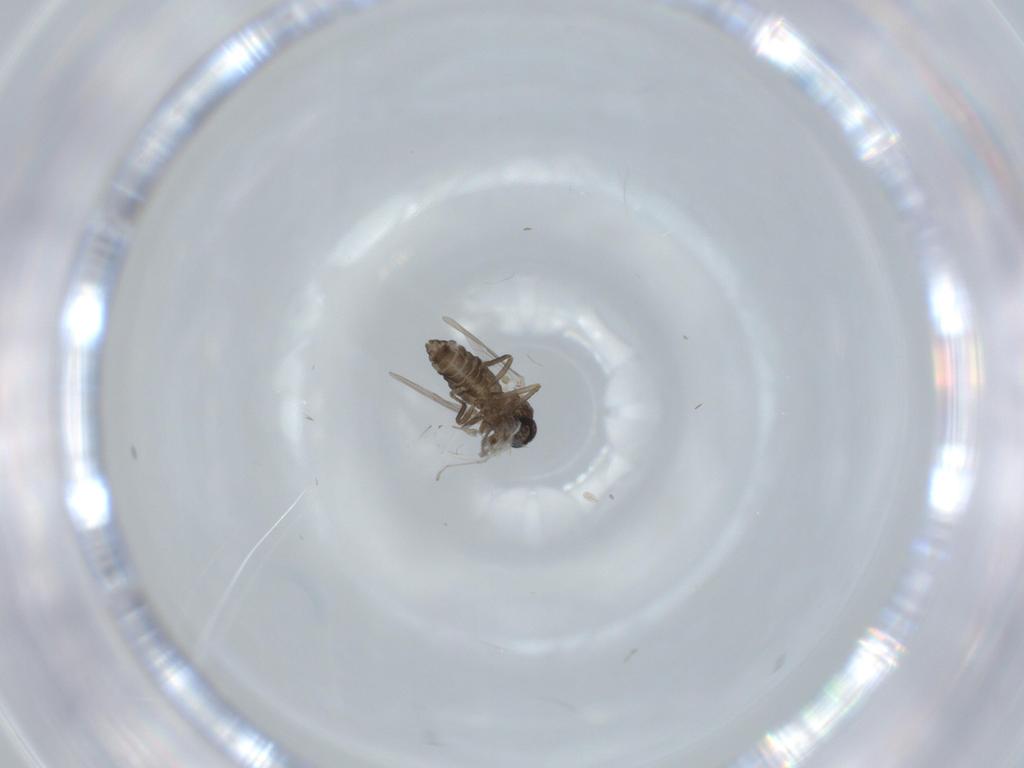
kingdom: Animalia
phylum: Arthropoda
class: Insecta
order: Diptera
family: Ceratopogonidae
